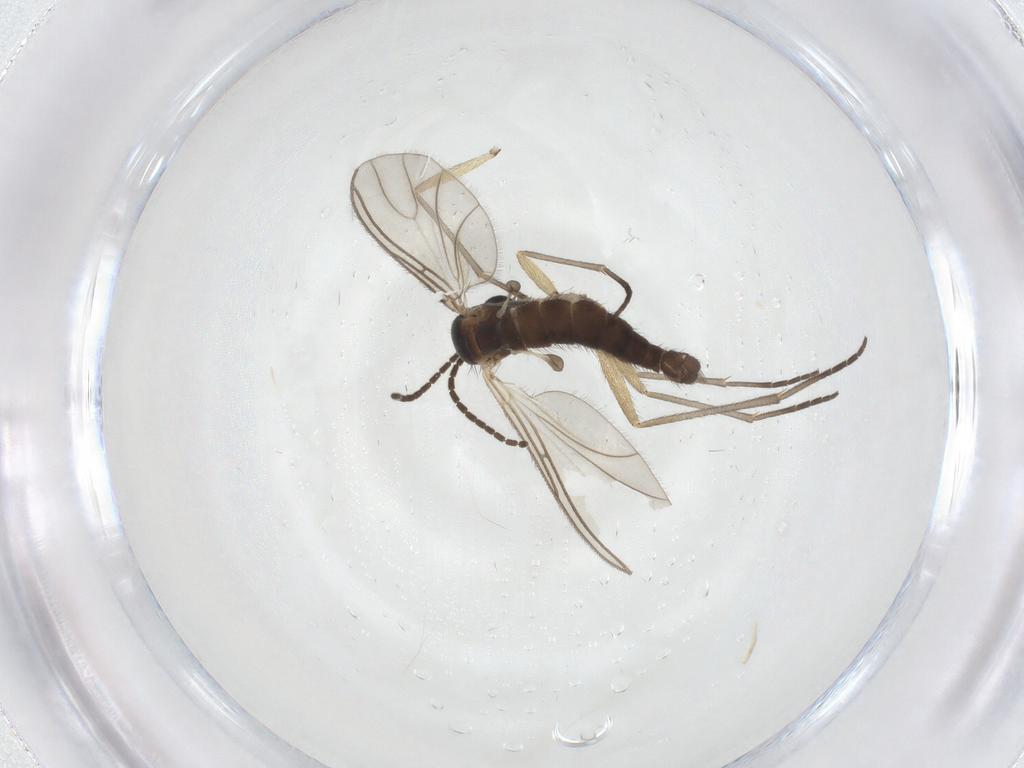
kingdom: Animalia
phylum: Arthropoda
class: Insecta
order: Diptera
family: Sciaridae
